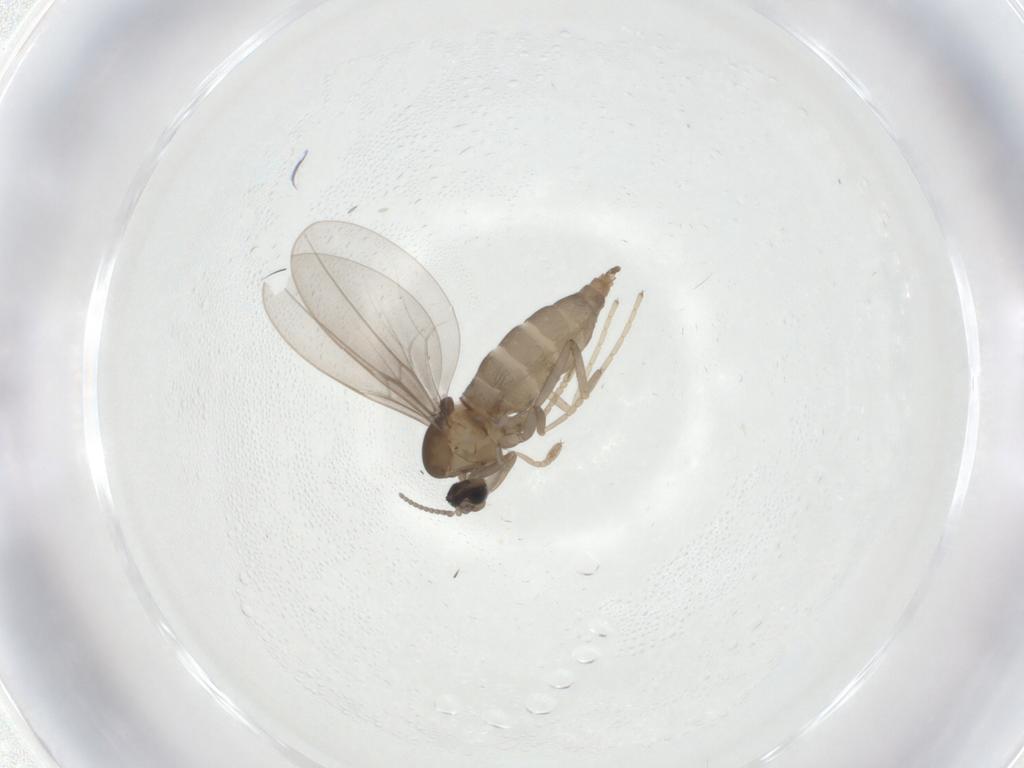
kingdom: Animalia
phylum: Arthropoda
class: Insecta
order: Diptera
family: Cecidomyiidae
